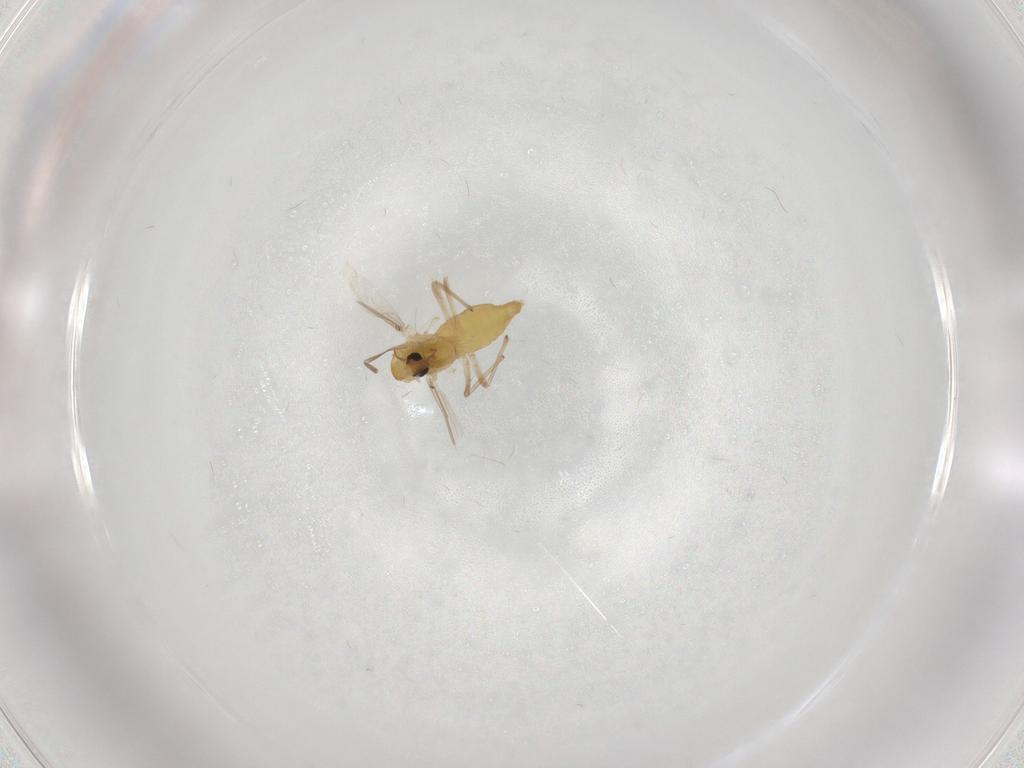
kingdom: Animalia
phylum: Arthropoda
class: Insecta
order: Diptera
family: Chironomidae
